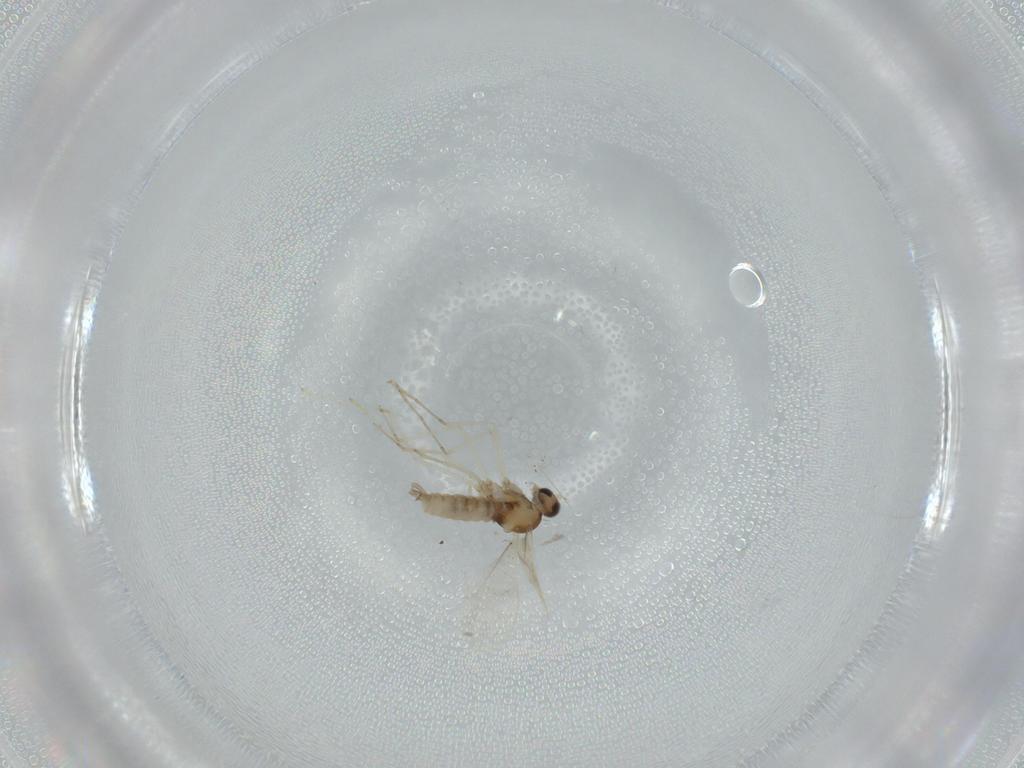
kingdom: Animalia
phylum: Arthropoda
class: Insecta
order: Diptera
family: Cecidomyiidae
